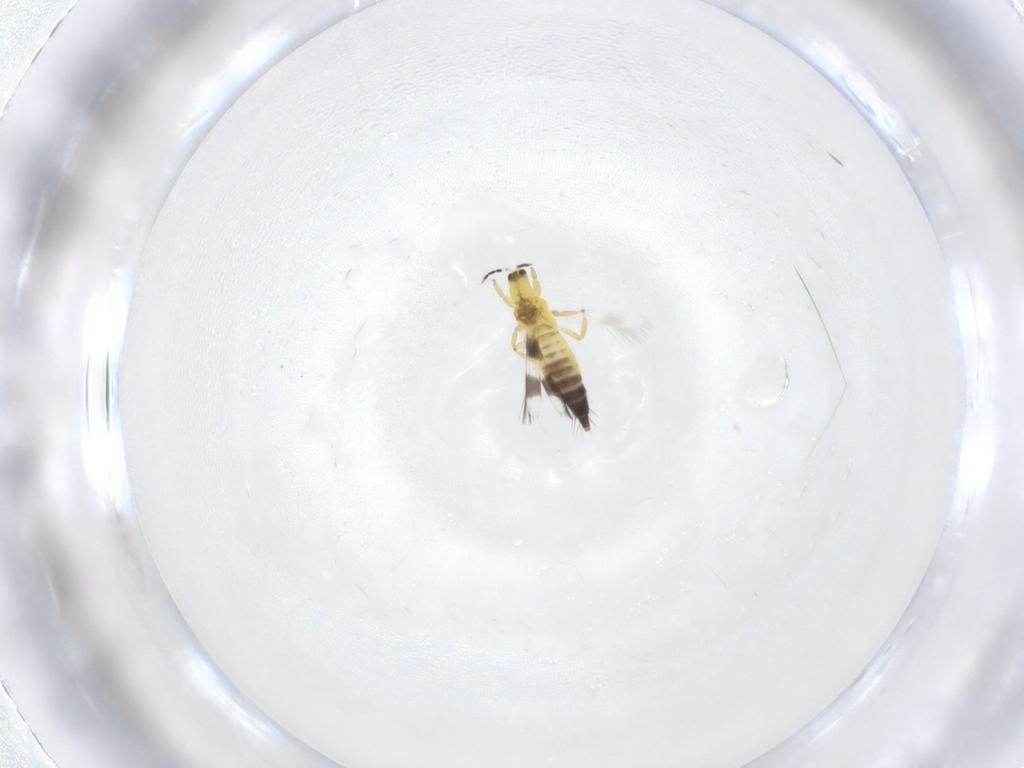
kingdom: Animalia
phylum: Arthropoda
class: Insecta
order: Thysanoptera
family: Aeolothripidae
